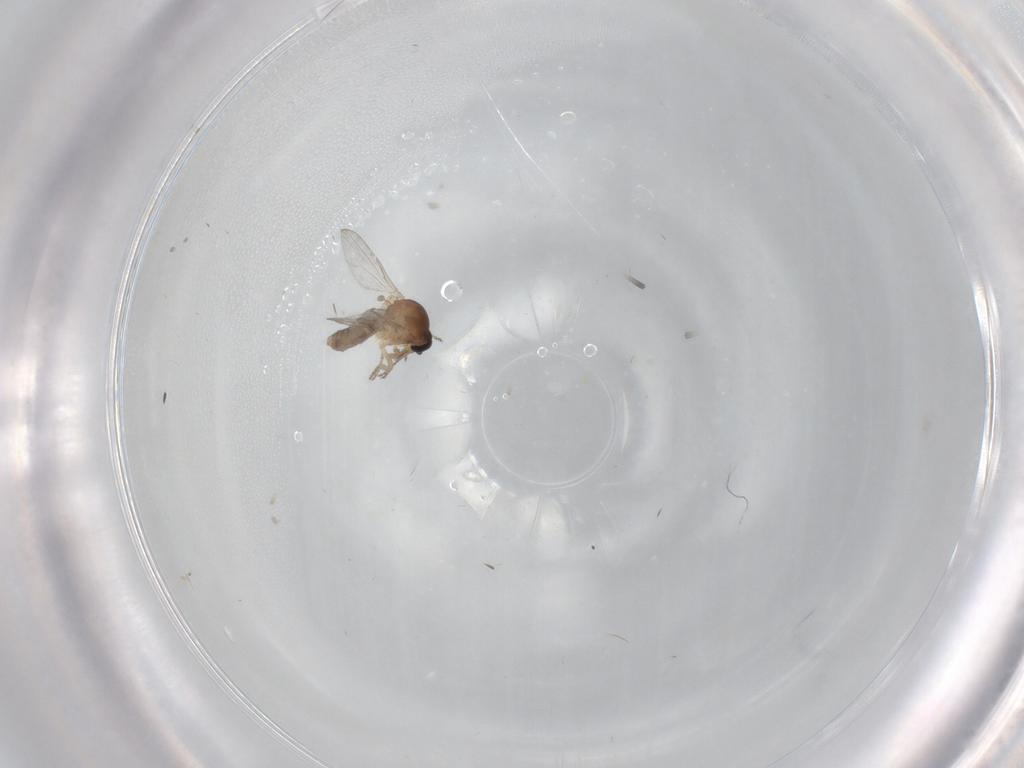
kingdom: Animalia
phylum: Arthropoda
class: Insecta
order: Diptera
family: Ceratopogonidae
